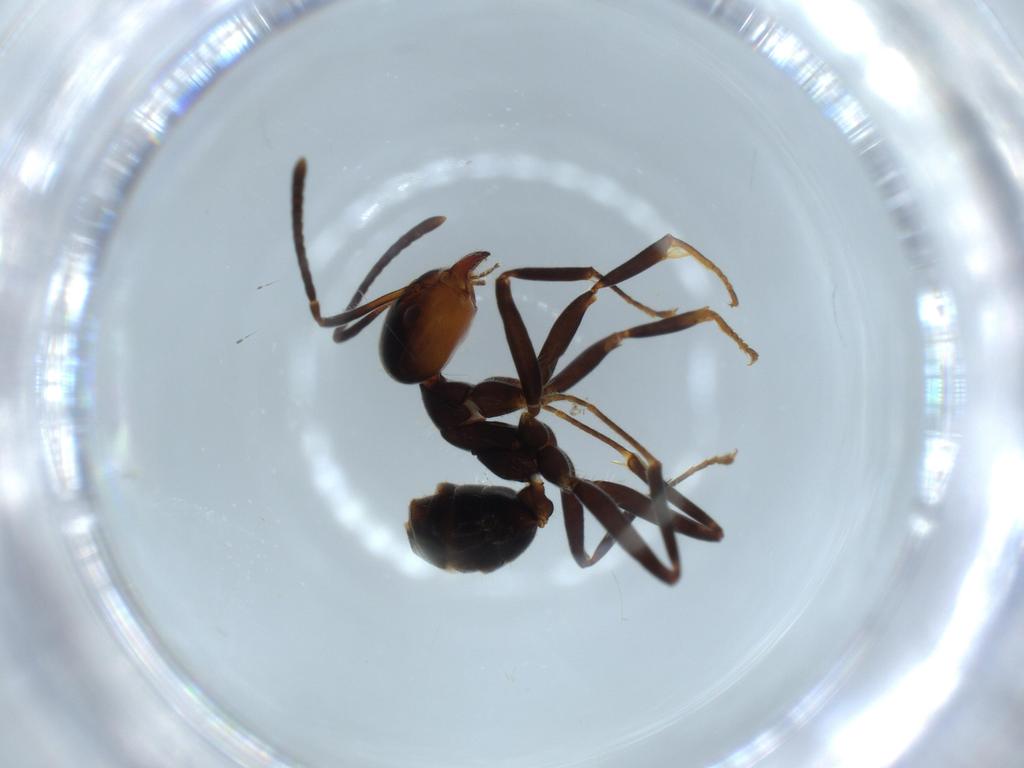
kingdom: Animalia
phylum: Arthropoda
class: Insecta
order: Hymenoptera
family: Formicidae
